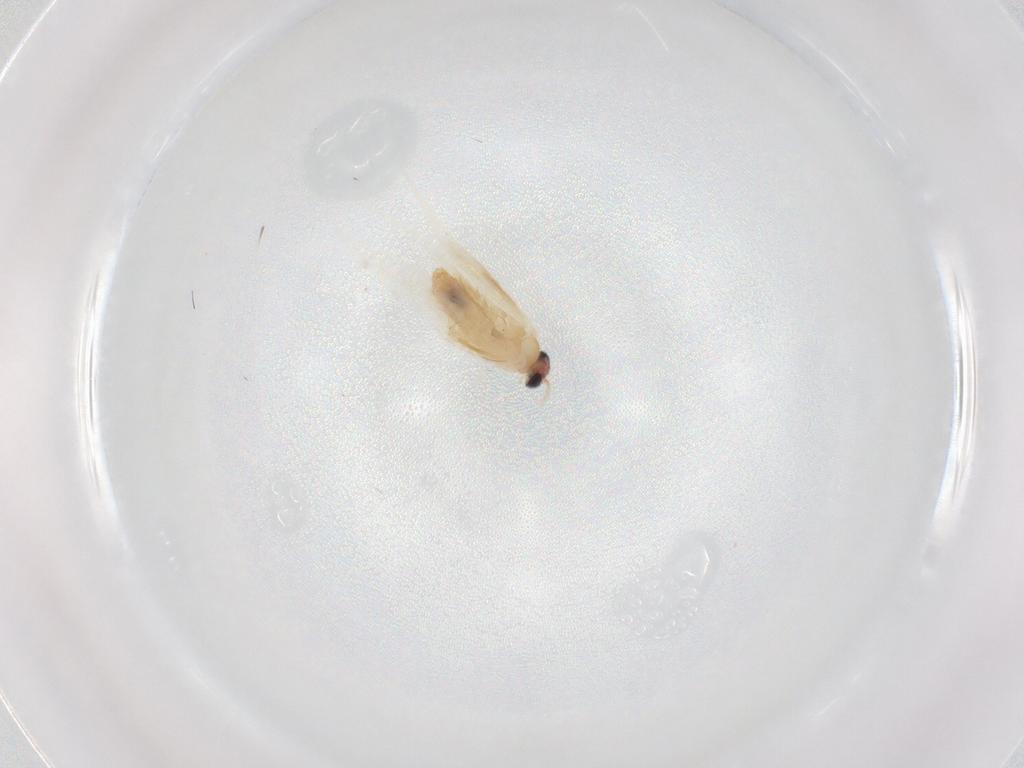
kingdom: Animalia
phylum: Arthropoda
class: Insecta
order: Lepidoptera
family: Nepticulidae
